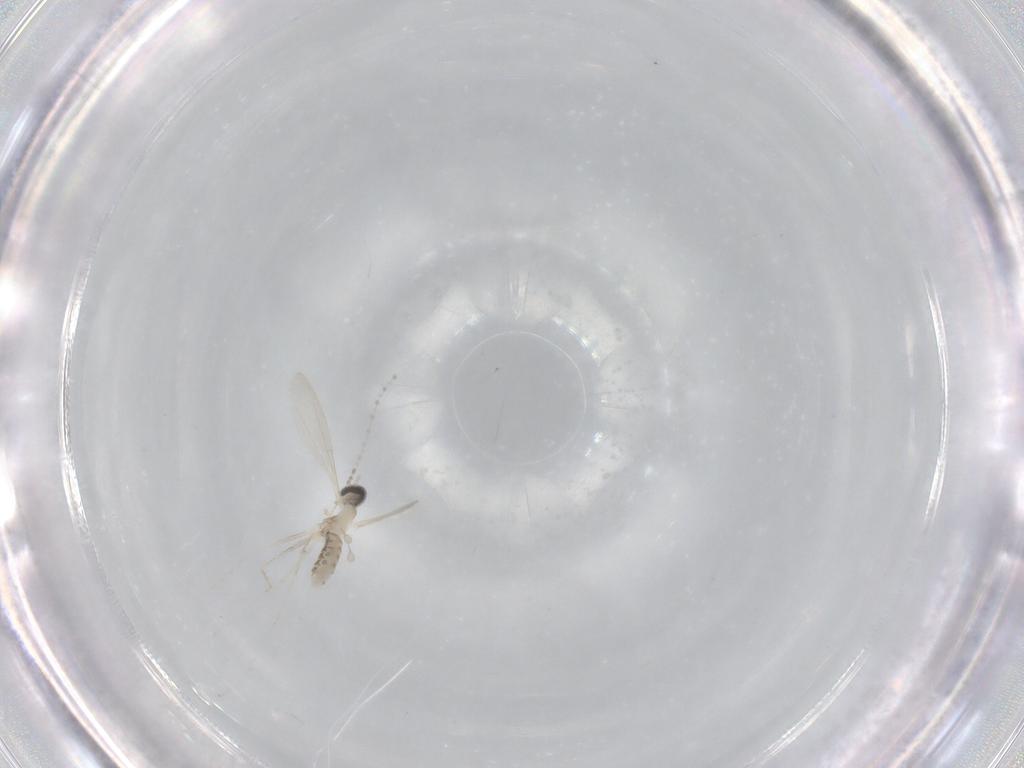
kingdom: Animalia
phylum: Arthropoda
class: Insecta
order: Diptera
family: Cecidomyiidae
